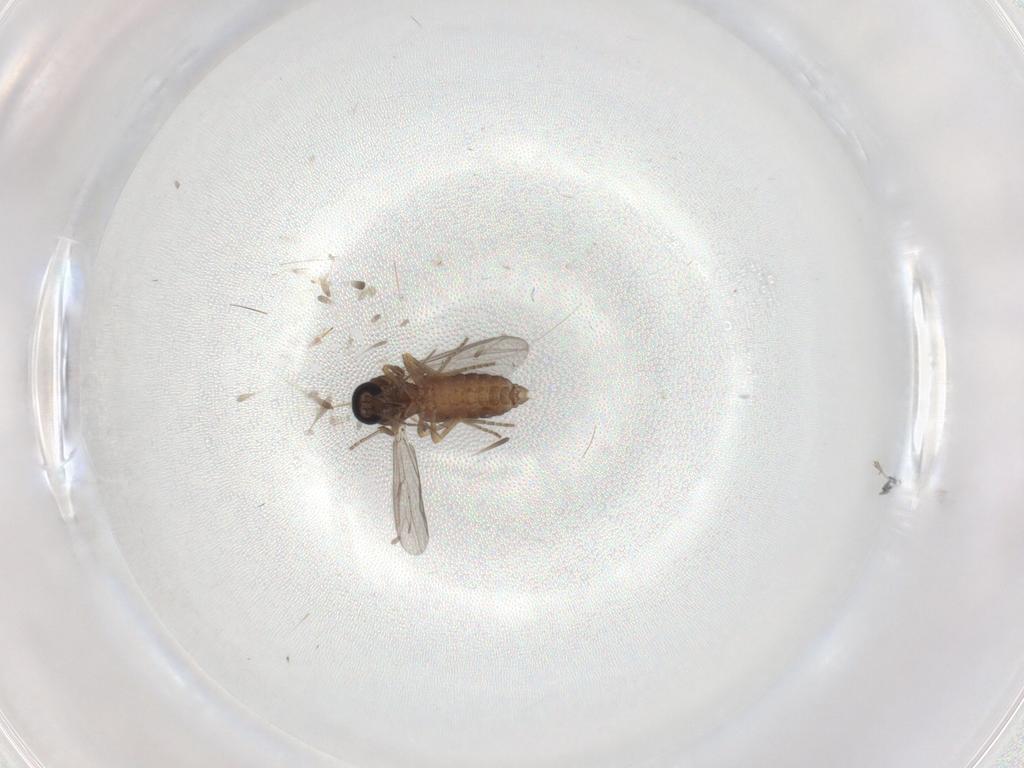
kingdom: Animalia
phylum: Arthropoda
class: Insecta
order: Diptera
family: Ceratopogonidae
